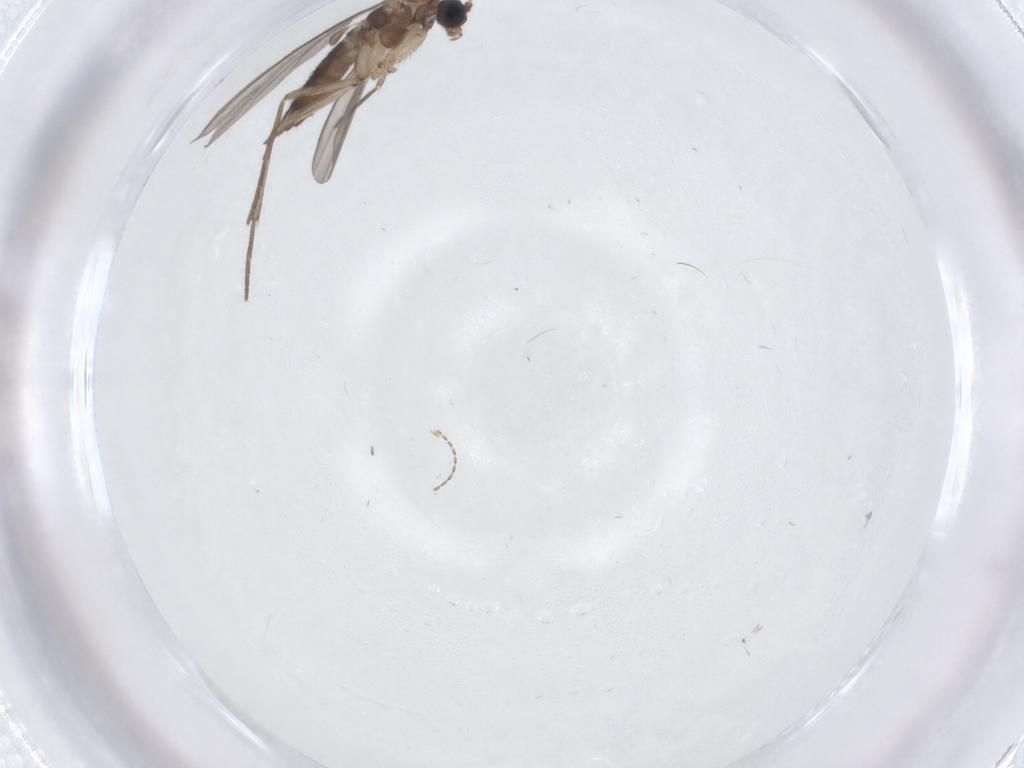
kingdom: Animalia
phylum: Arthropoda
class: Insecta
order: Diptera
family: Sciaridae
